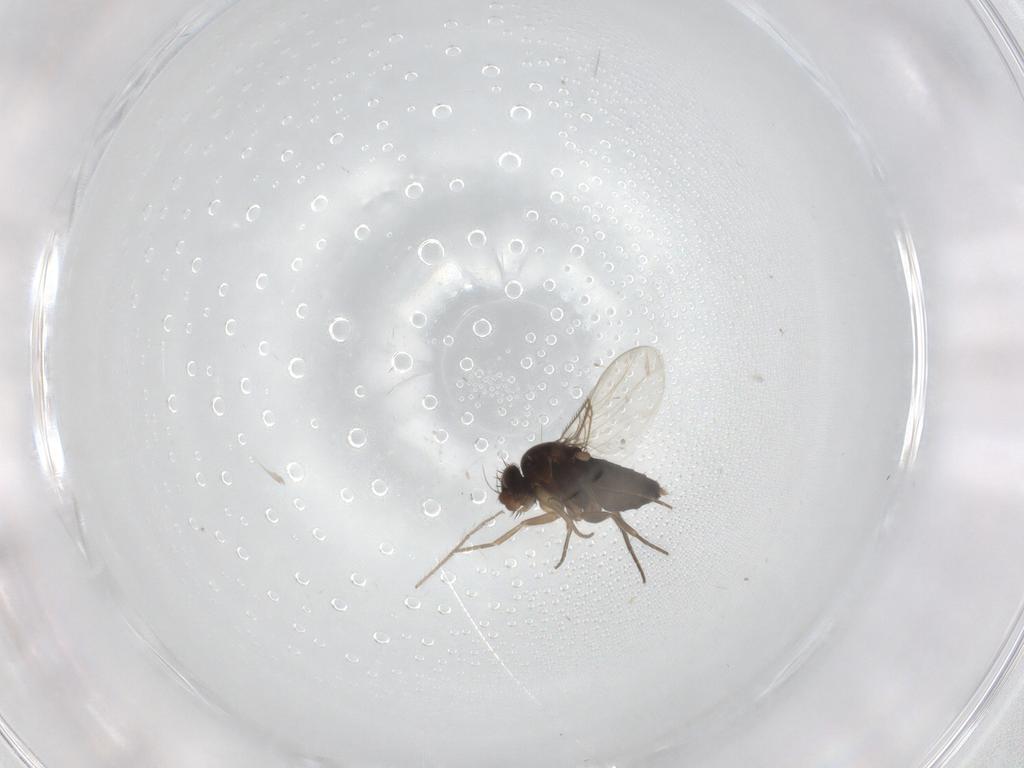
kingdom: Animalia
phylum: Arthropoda
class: Insecta
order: Diptera
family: Phoridae
